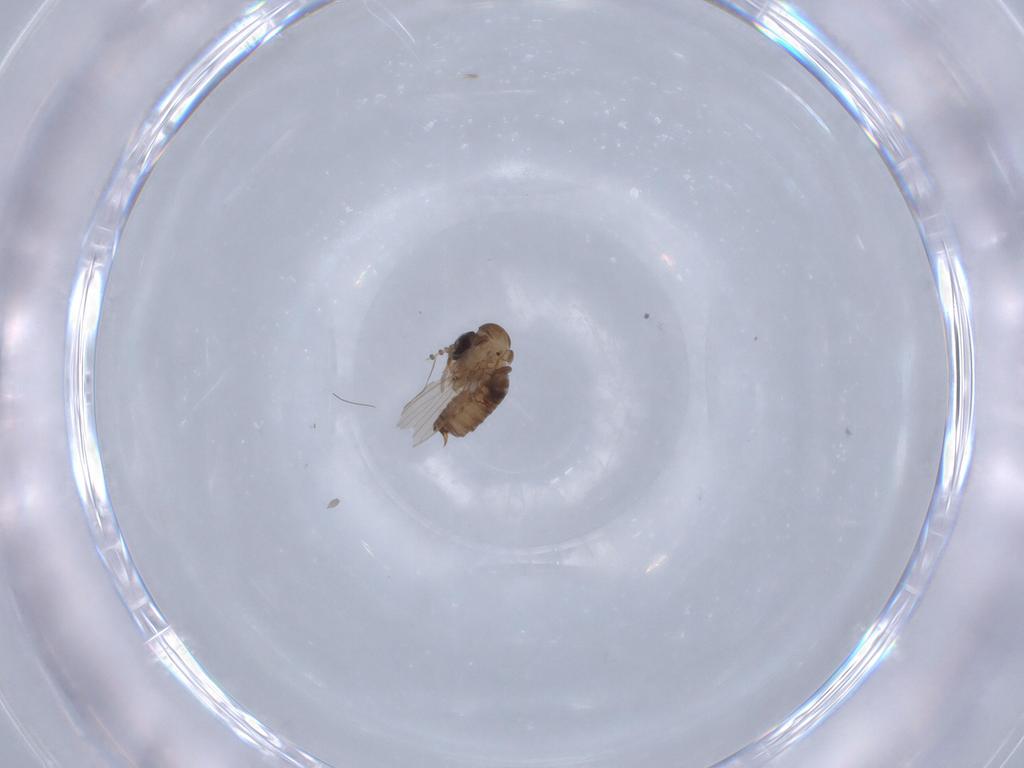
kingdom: Animalia
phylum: Arthropoda
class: Insecta
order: Diptera
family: Psychodidae
